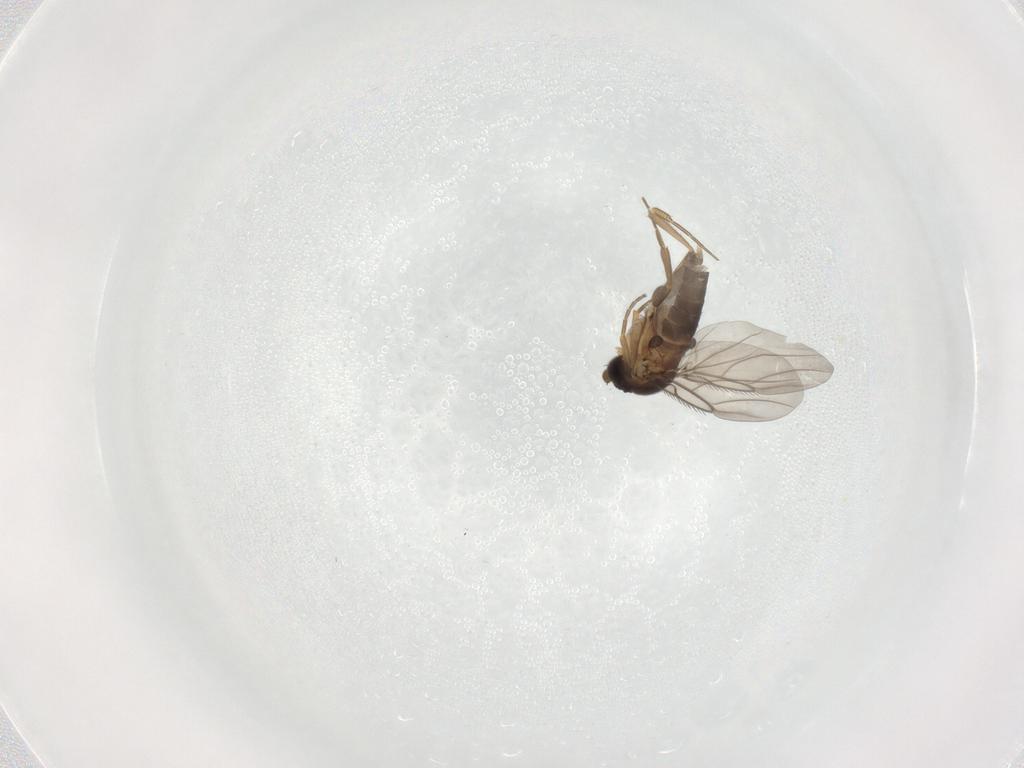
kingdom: Animalia
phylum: Arthropoda
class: Insecta
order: Diptera
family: Phoridae
